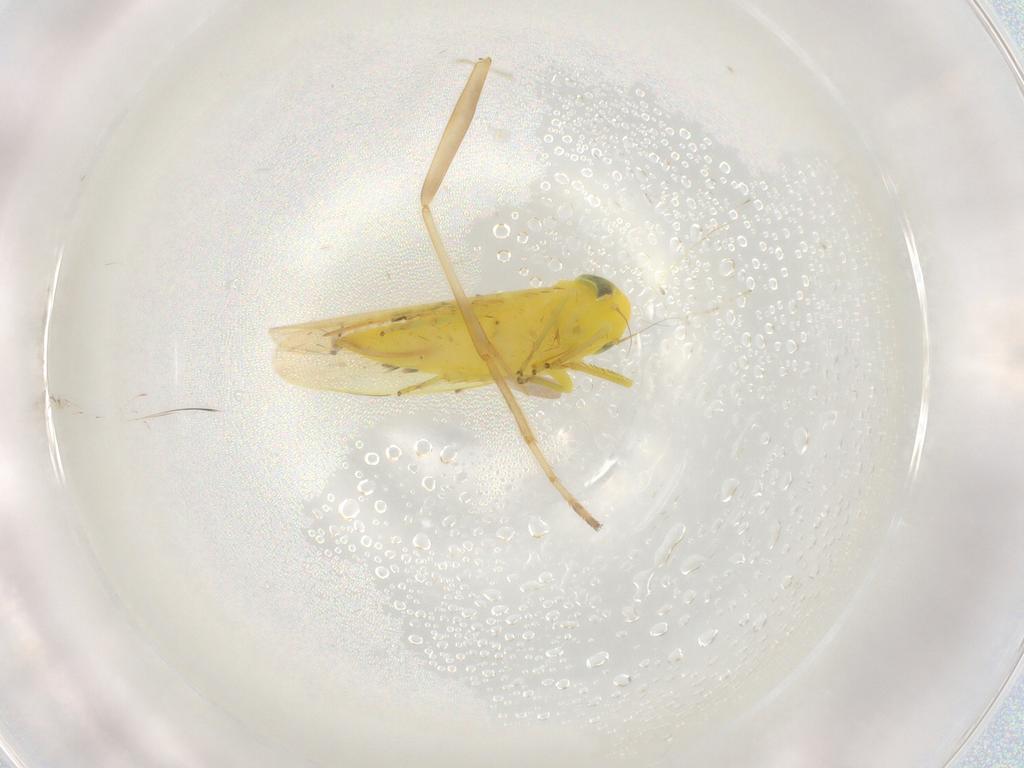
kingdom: Animalia
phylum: Arthropoda
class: Insecta
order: Hemiptera
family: Cicadellidae
